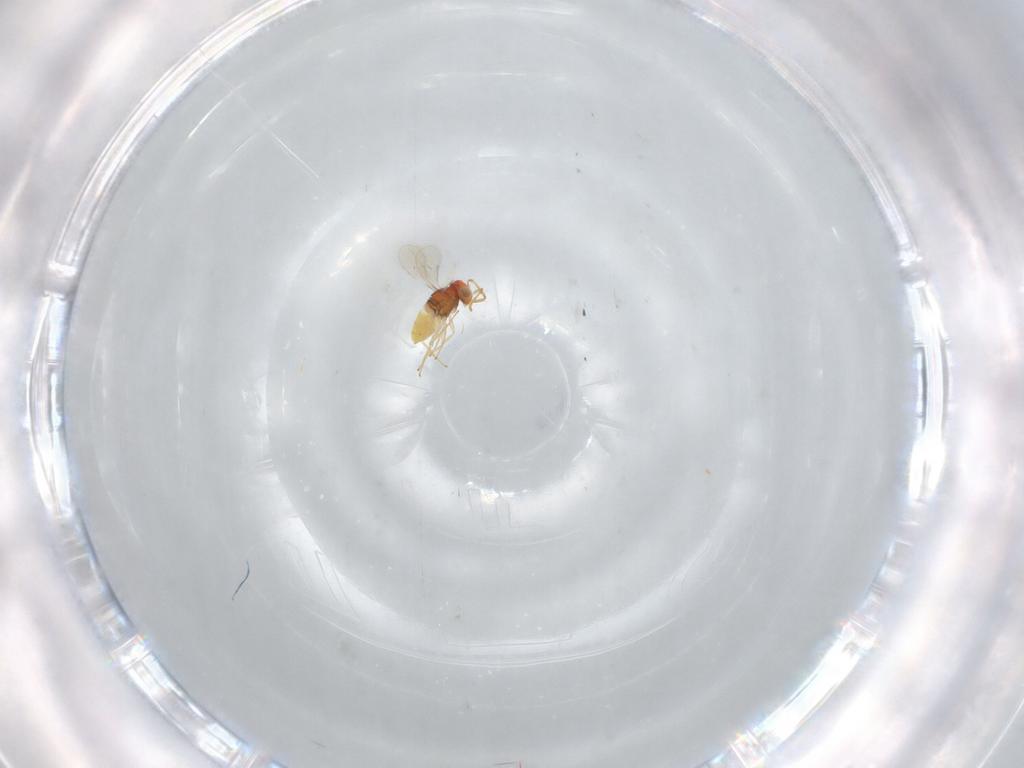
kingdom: Animalia
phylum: Arthropoda
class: Insecta
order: Hymenoptera
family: Aphelinidae
